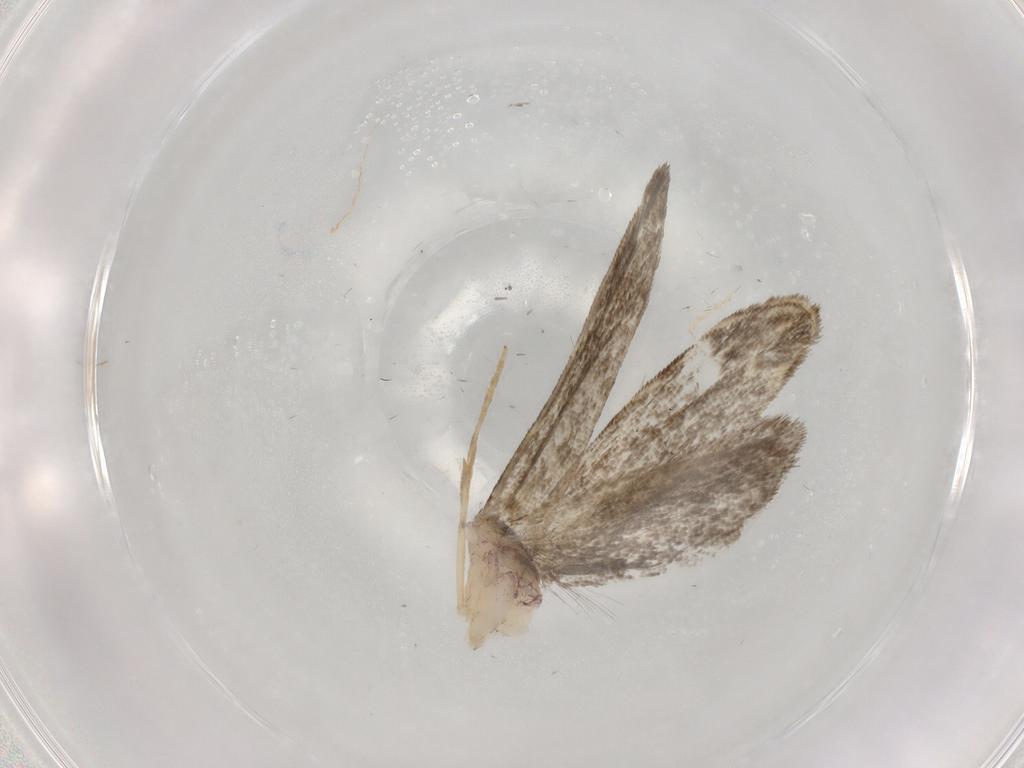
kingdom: Animalia
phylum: Arthropoda
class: Insecta
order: Lepidoptera
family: Dryadaulidae
